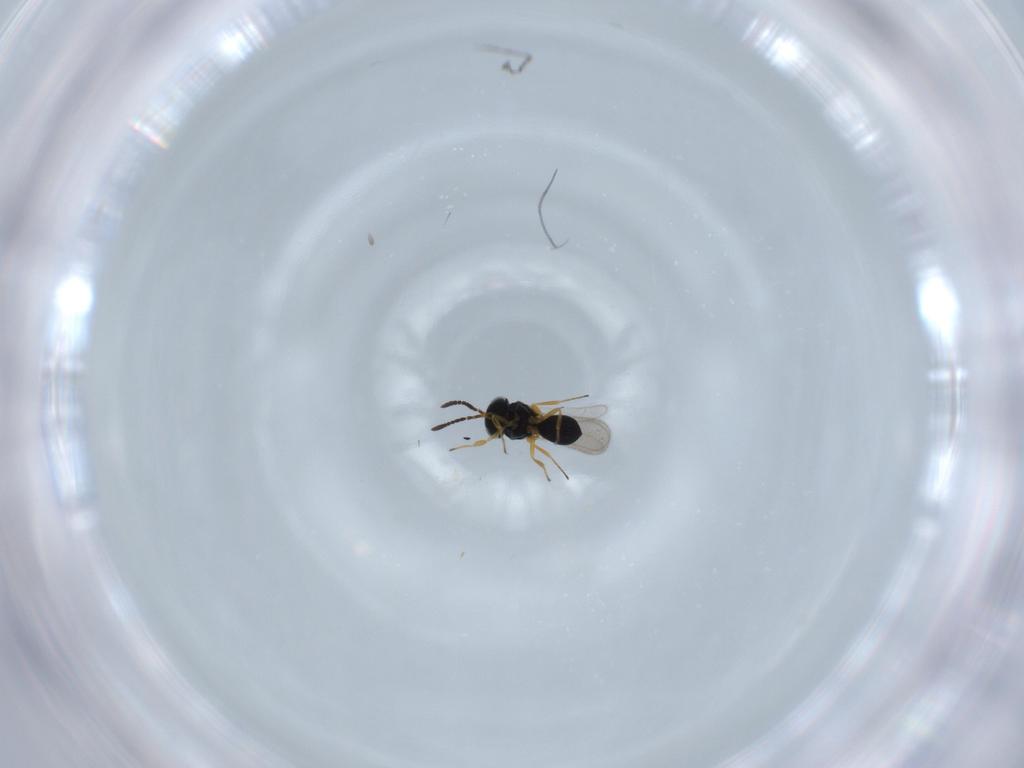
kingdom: Animalia
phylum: Arthropoda
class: Insecta
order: Hymenoptera
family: Scelionidae
